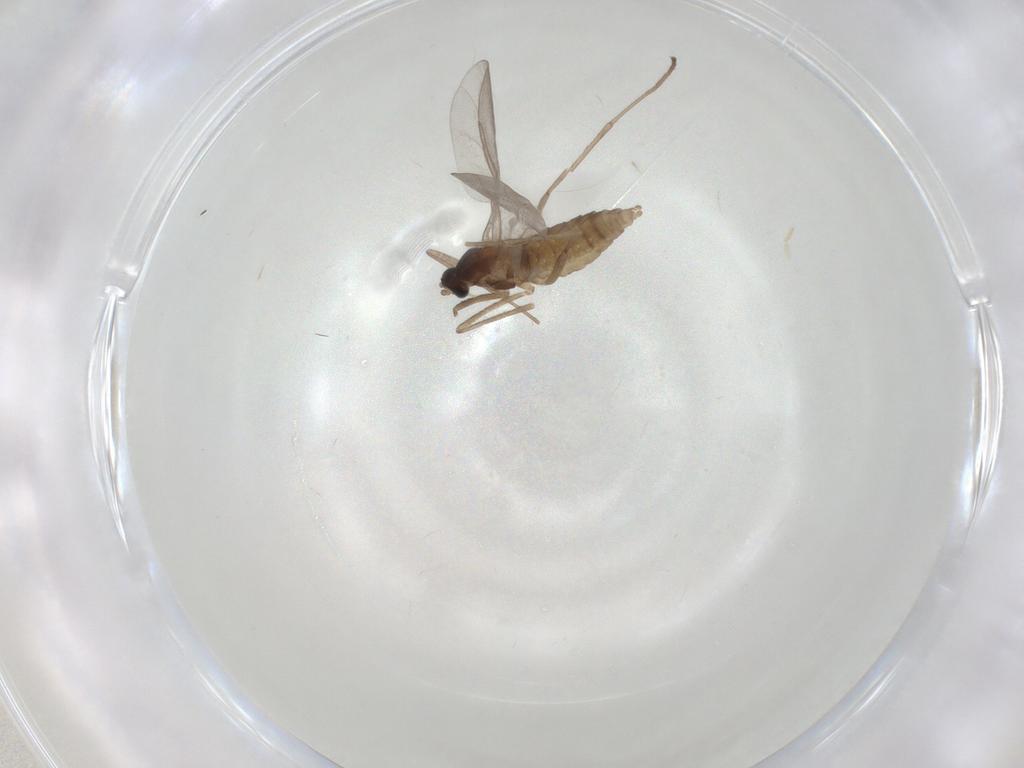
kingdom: Animalia
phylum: Arthropoda
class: Insecta
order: Diptera
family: Cecidomyiidae
